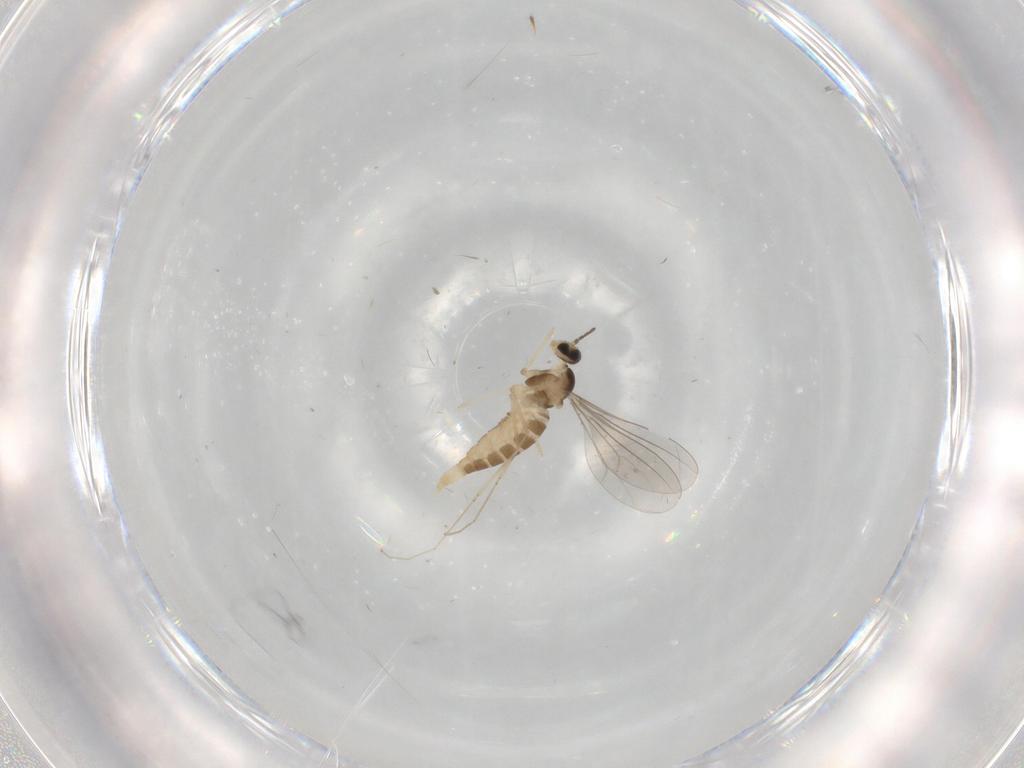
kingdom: Animalia
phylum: Arthropoda
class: Insecta
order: Diptera
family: Cecidomyiidae
